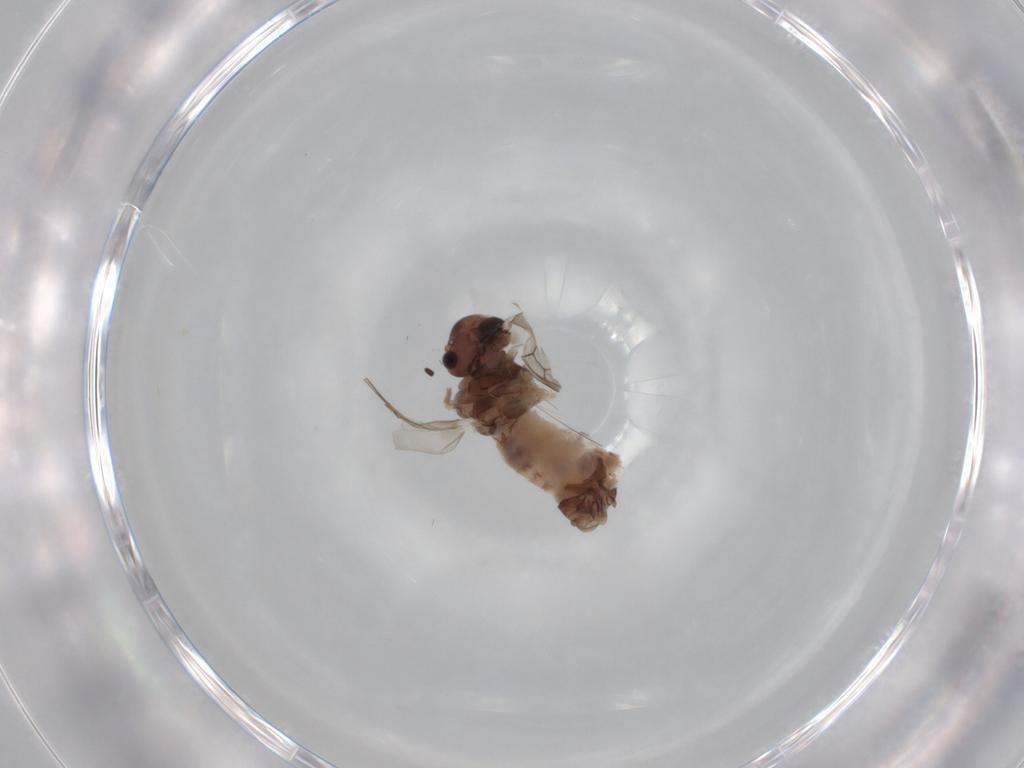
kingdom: Animalia
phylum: Arthropoda
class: Insecta
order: Psocodea
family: Peripsocidae
